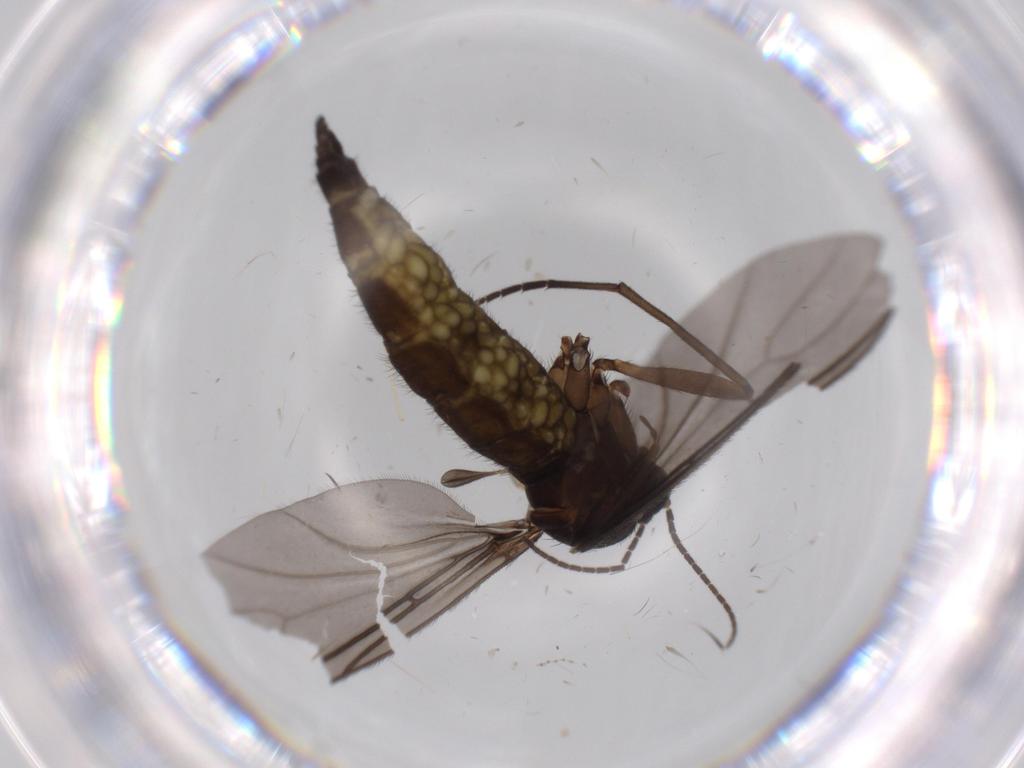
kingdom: Animalia
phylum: Arthropoda
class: Insecta
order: Diptera
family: Sciaridae
